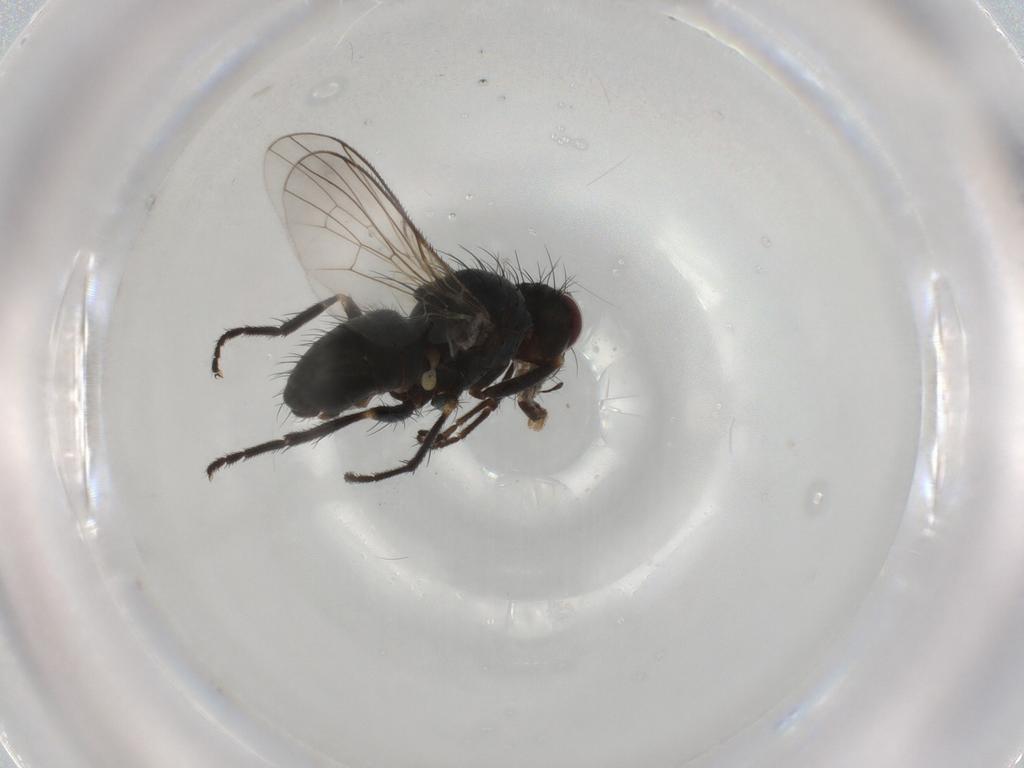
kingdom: Animalia
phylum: Arthropoda
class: Insecta
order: Diptera
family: Muscidae
